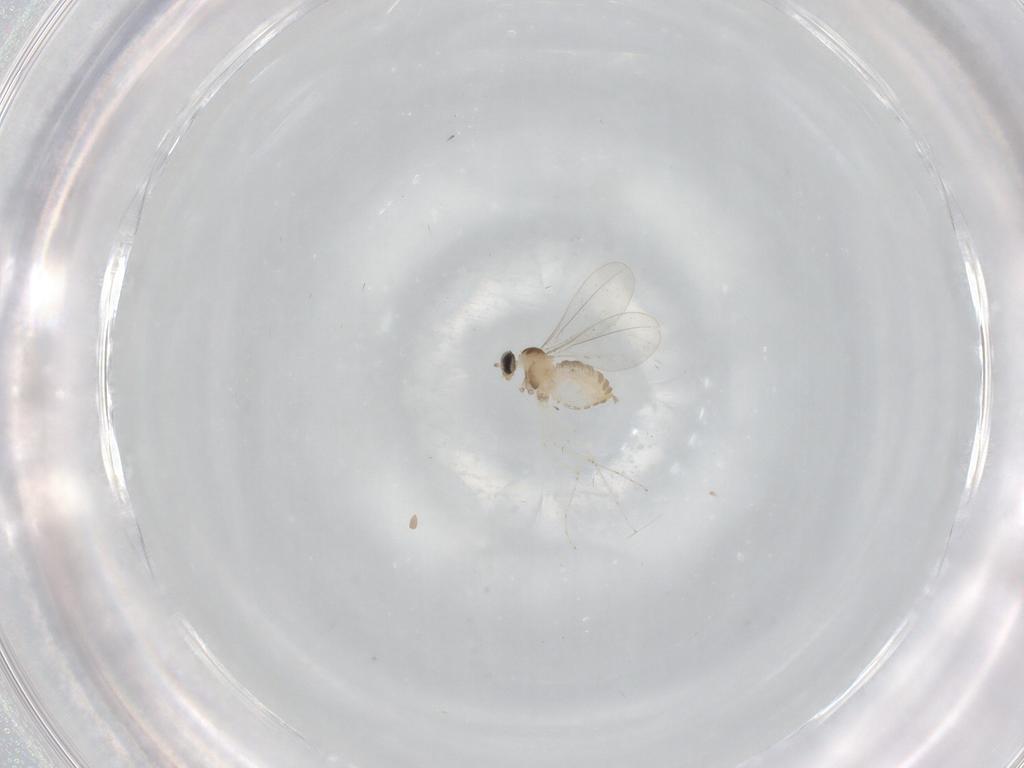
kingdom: Animalia
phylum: Arthropoda
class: Insecta
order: Diptera
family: Cecidomyiidae
